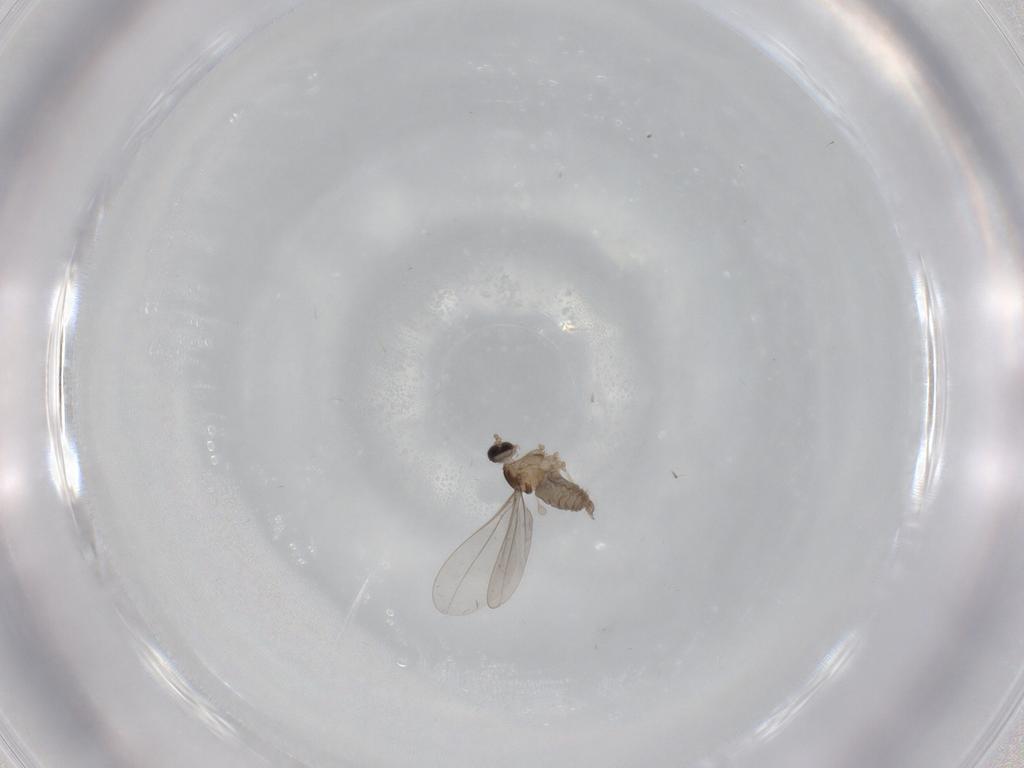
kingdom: Animalia
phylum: Arthropoda
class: Insecta
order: Diptera
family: Cecidomyiidae
